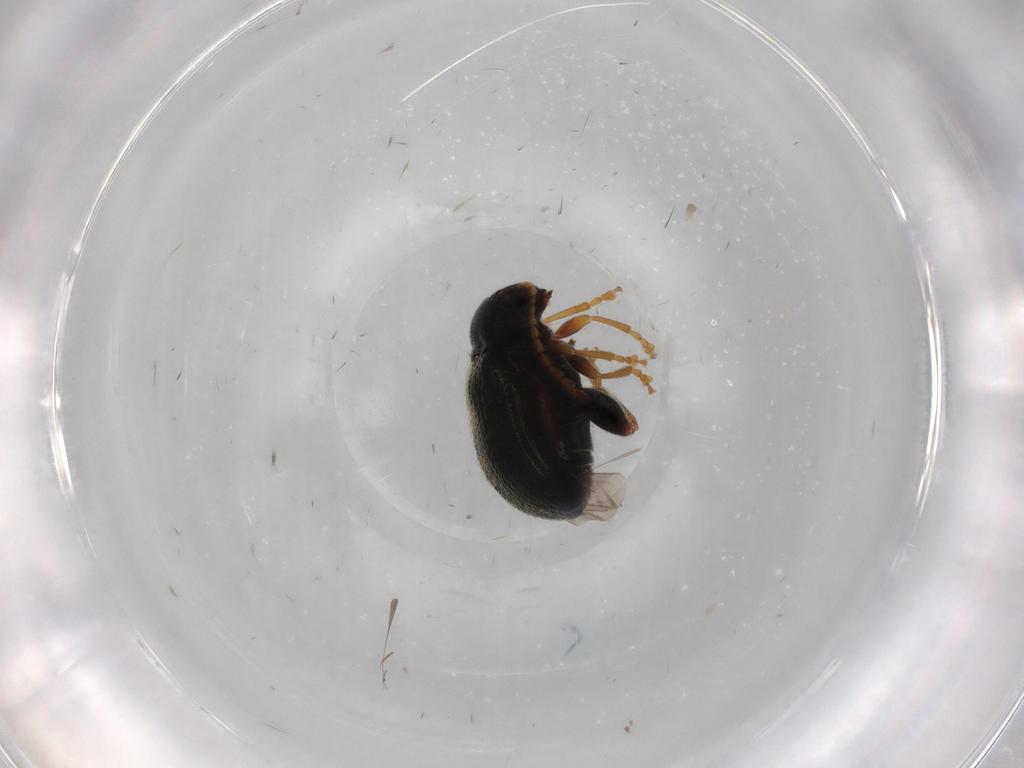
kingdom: Animalia
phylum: Arthropoda
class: Insecta
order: Coleoptera
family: Chrysomelidae
